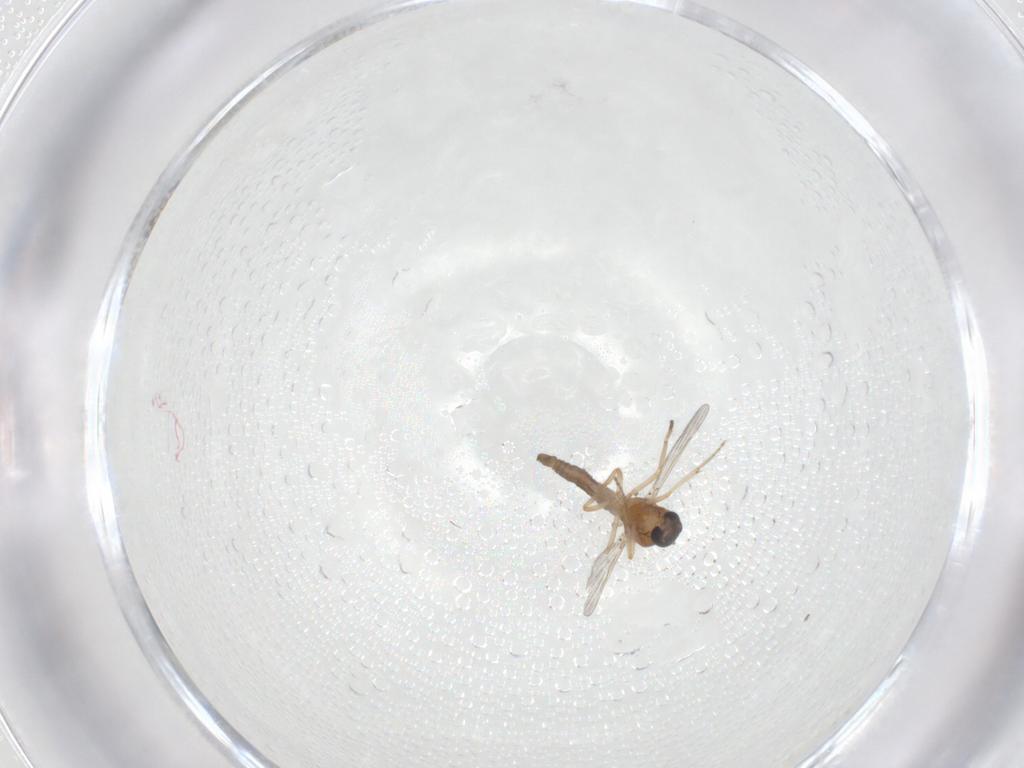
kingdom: Animalia
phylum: Arthropoda
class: Insecta
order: Diptera
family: Ceratopogonidae
